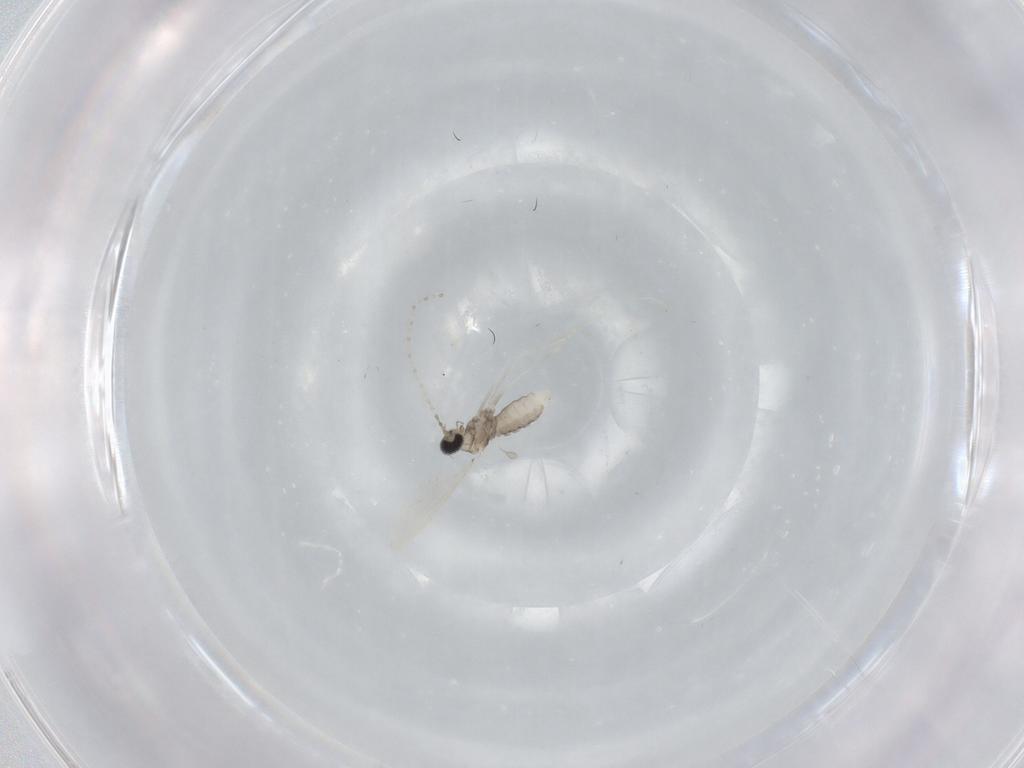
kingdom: Animalia
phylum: Arthropoda
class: Insecta
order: Diptera
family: Cecidomyiidae
